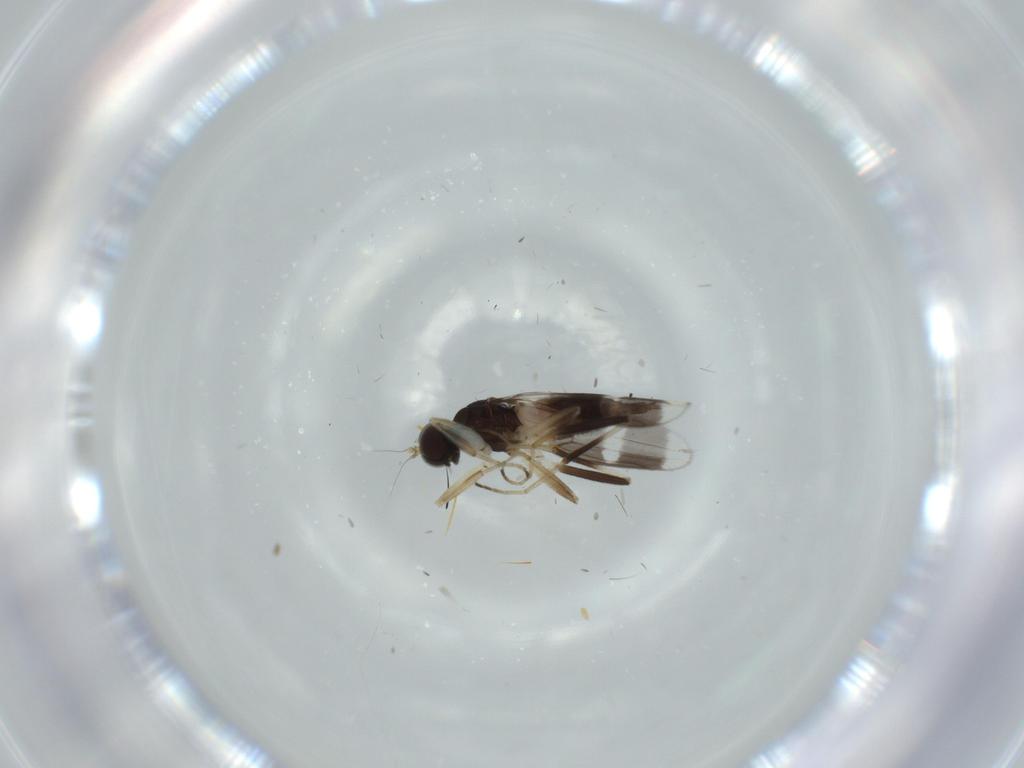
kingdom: Animalia
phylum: Arthropoda
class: Insecta
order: Diptera
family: Hybotidae
